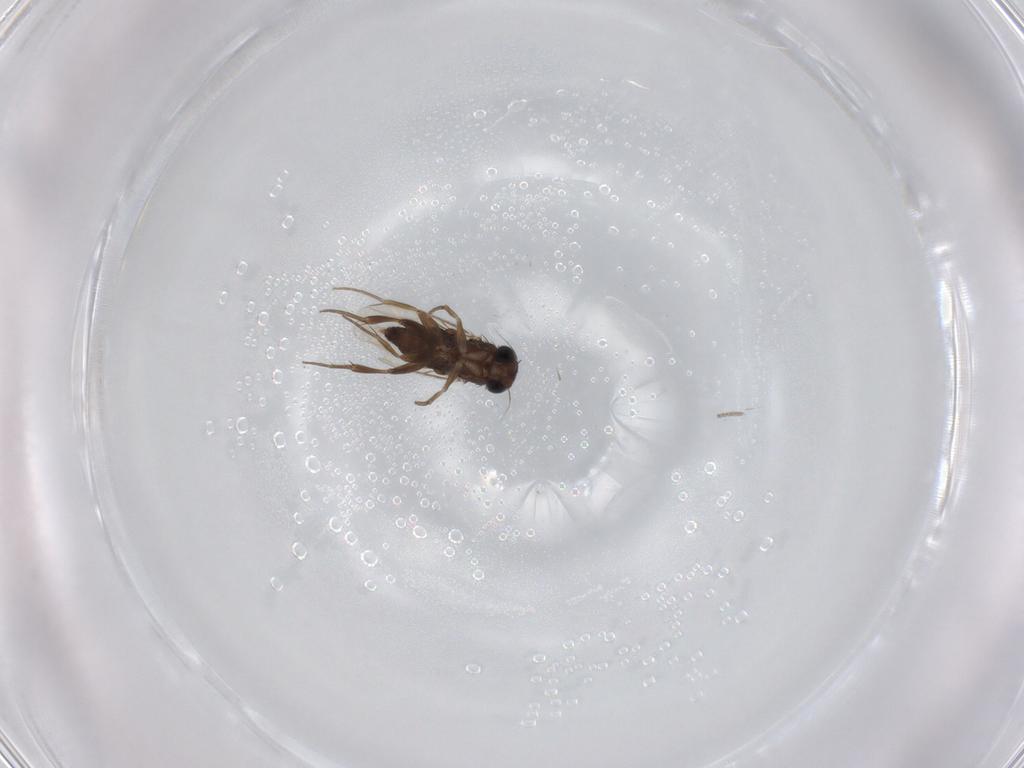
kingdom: Animalia
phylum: Arthropoda
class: Insecta
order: Diptera
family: Phoridae
